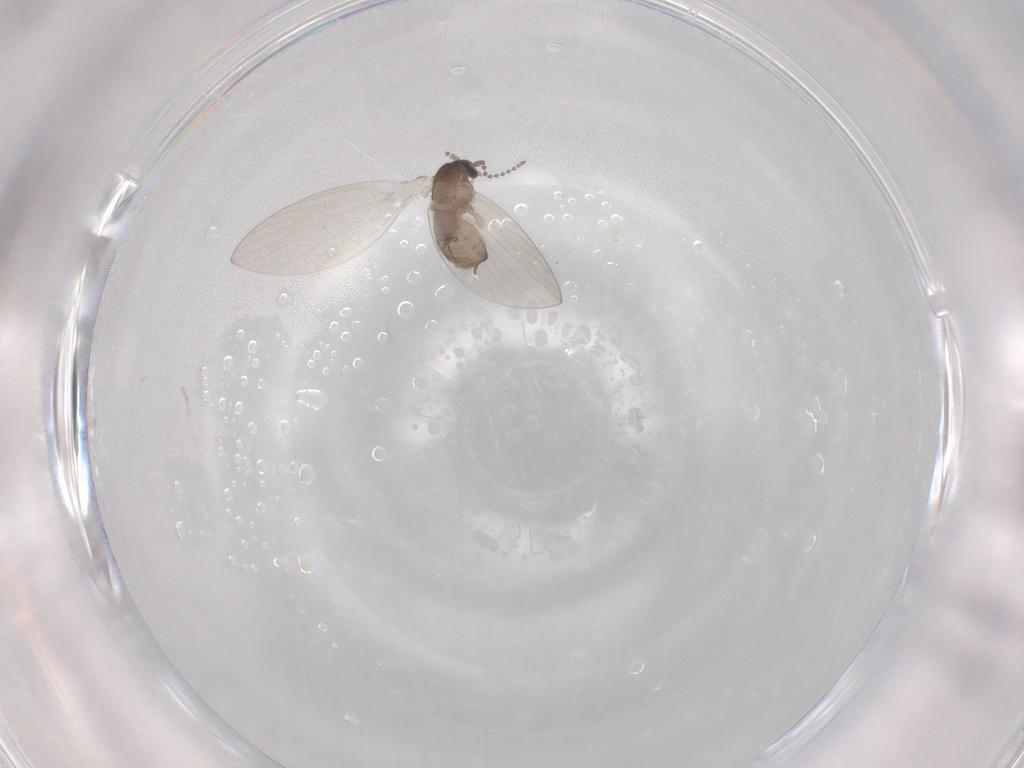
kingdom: Animalia
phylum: Arthropoda
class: Insecta
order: Diptera
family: Psychodidae
